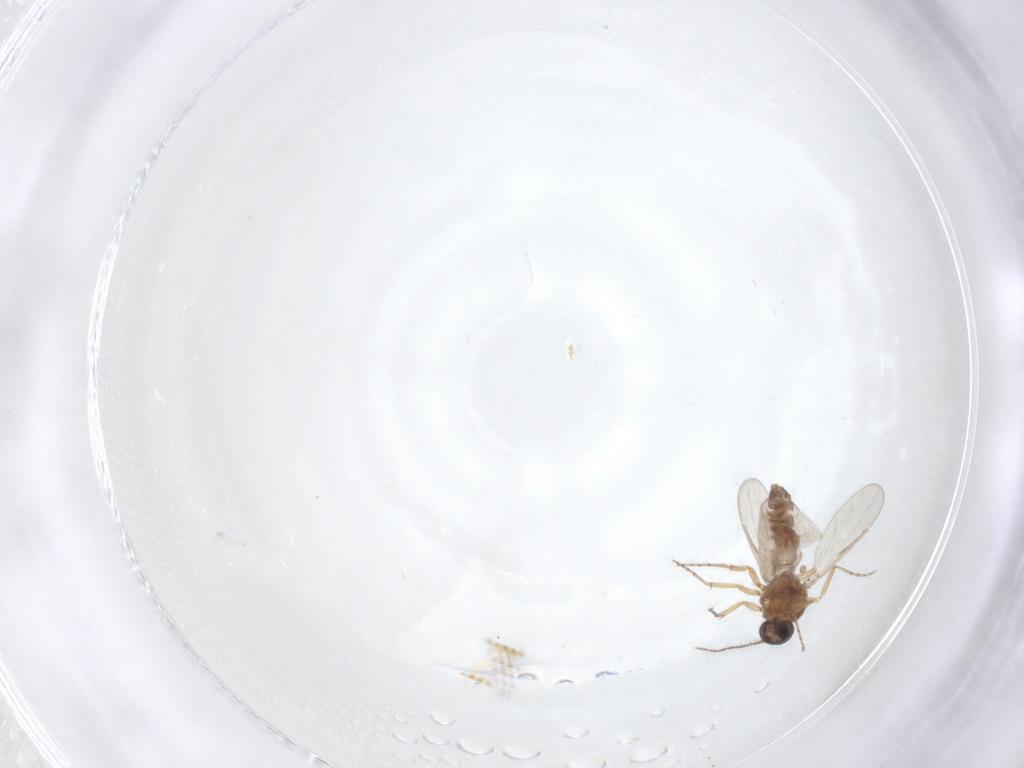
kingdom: Animalia
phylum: Arthropoda
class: Insecta
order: Diptera
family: Ceratopogonidae
